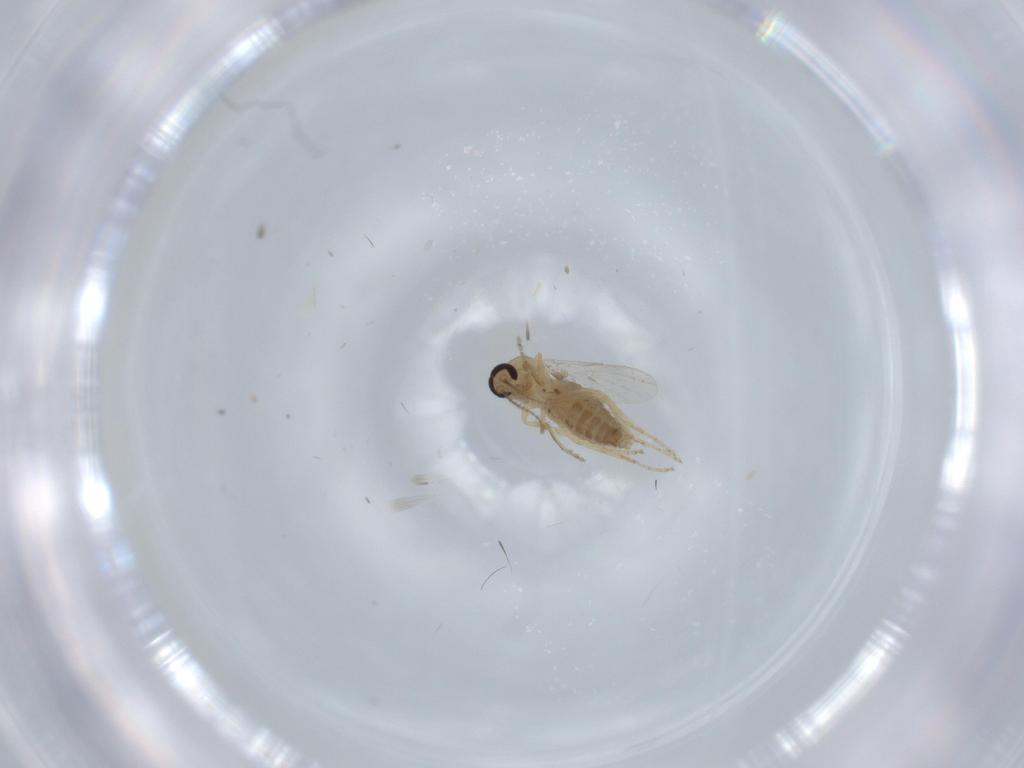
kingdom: Animalia
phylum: Arthropoda
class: Insecta
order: Diptera
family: Ceratopogonidae
